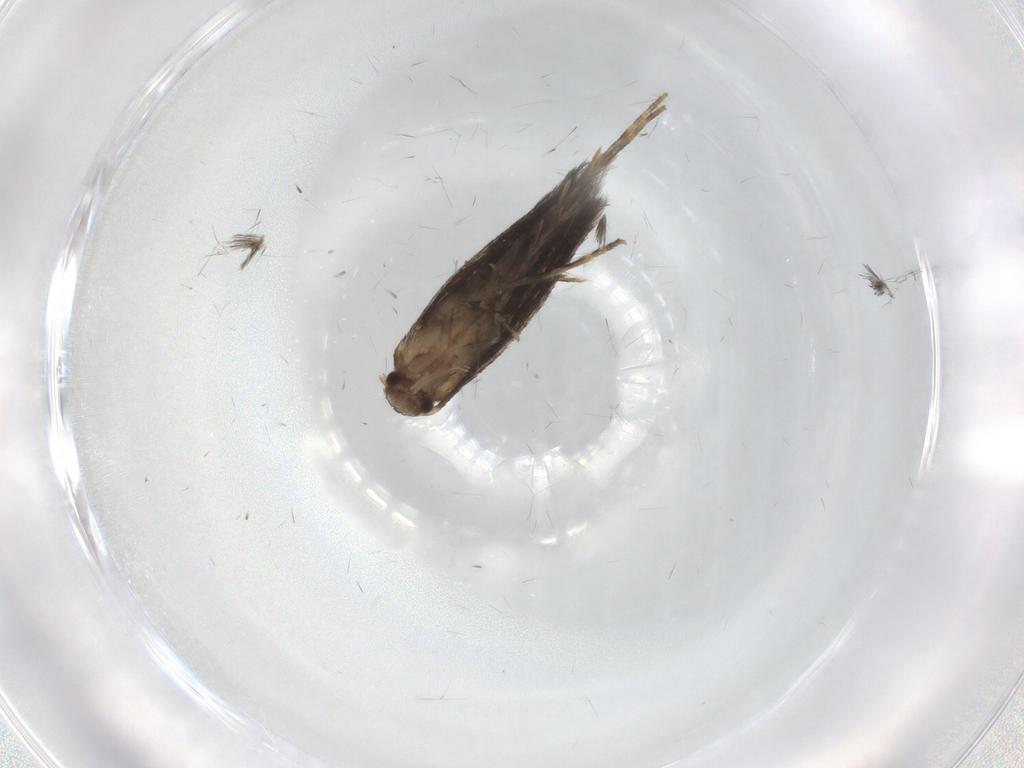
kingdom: Animalia
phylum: Arthropoda
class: Insecta
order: Lepidoptera
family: Elachistidae
